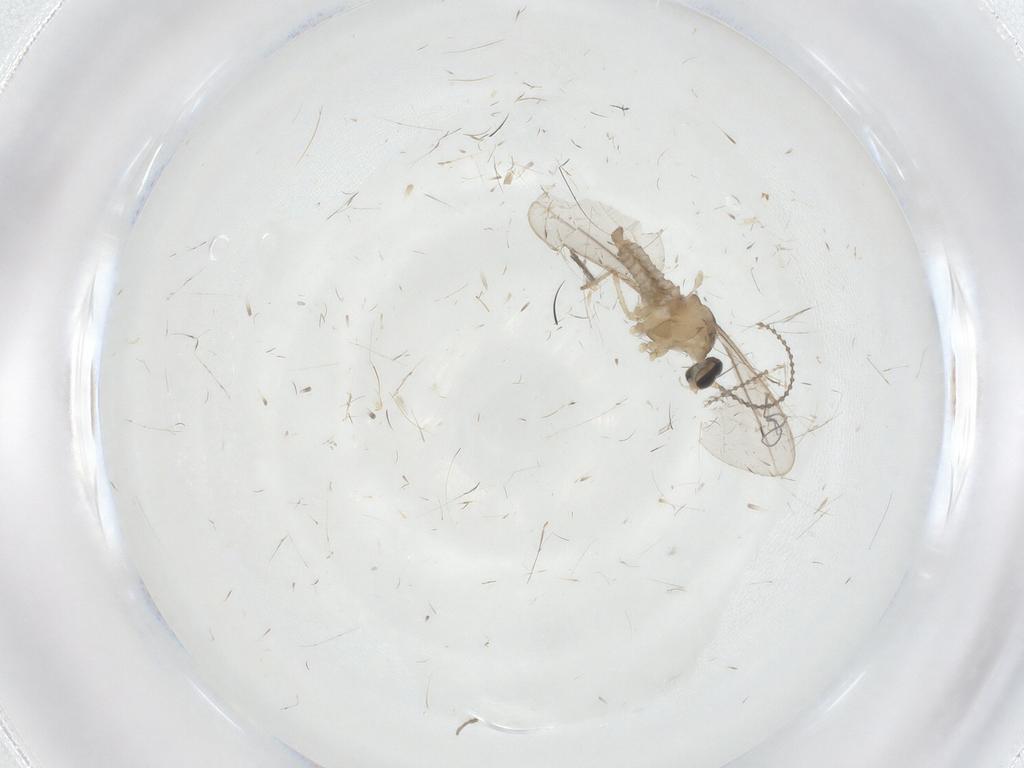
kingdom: Animalia
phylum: Arthropoda
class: Insecta
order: Diptera
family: Cecidomyiidae
